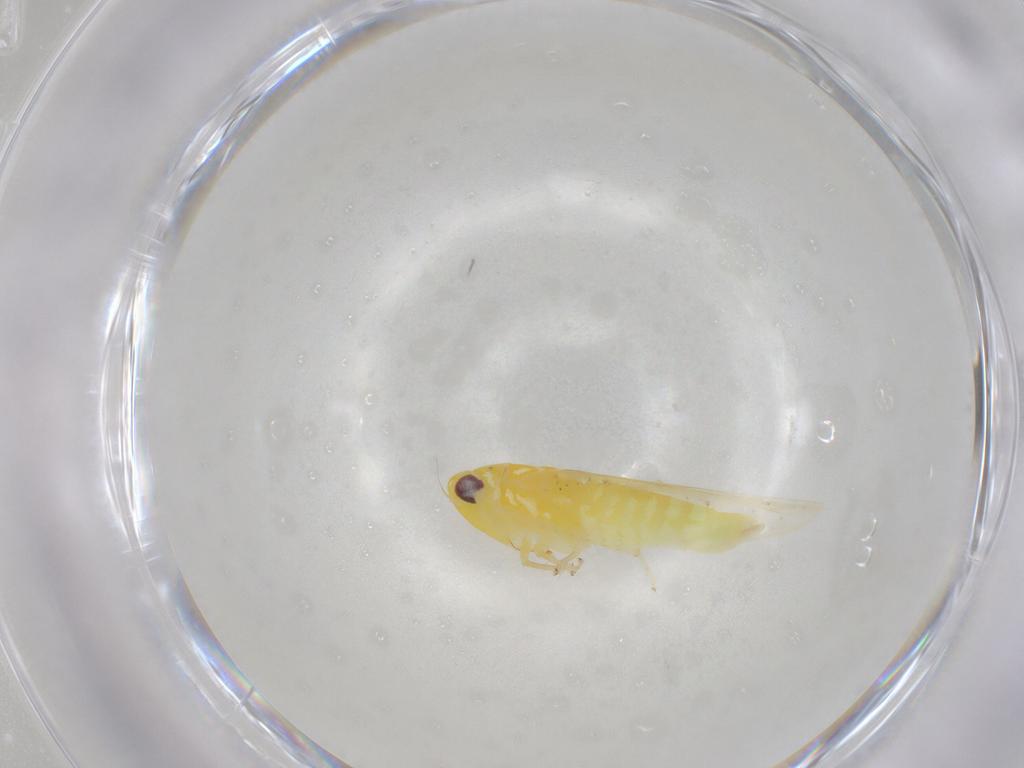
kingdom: Animalia
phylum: Arthropoda
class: Insecta
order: Hemiptera
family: Cicadellidae
